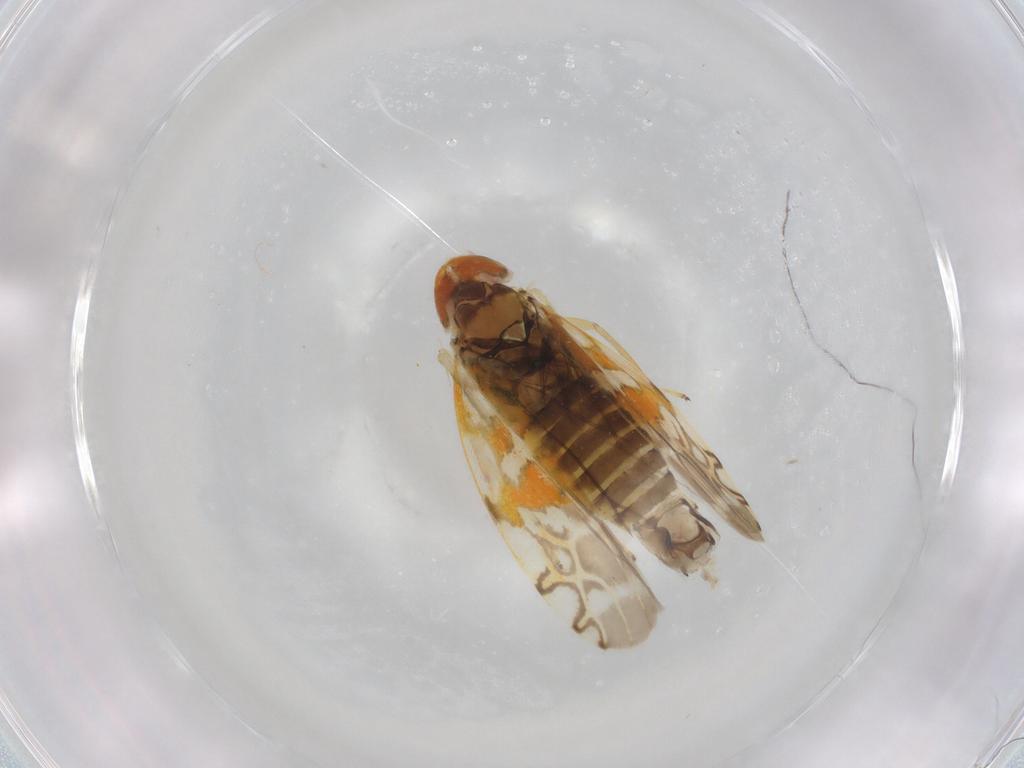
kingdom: Animalia
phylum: Arthropoda
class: Insecta
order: Hemiptera
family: Cicadellidae
